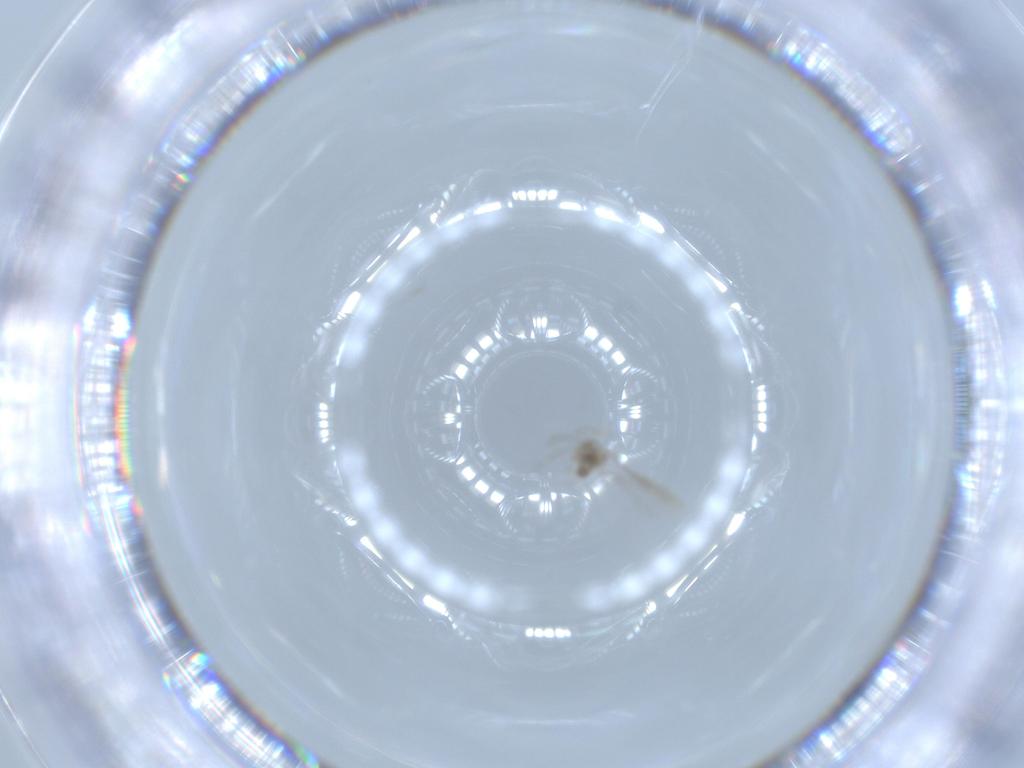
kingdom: Animalia
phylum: Arthropoda
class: Insecta
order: Diptera
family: Cecidomyiidae
